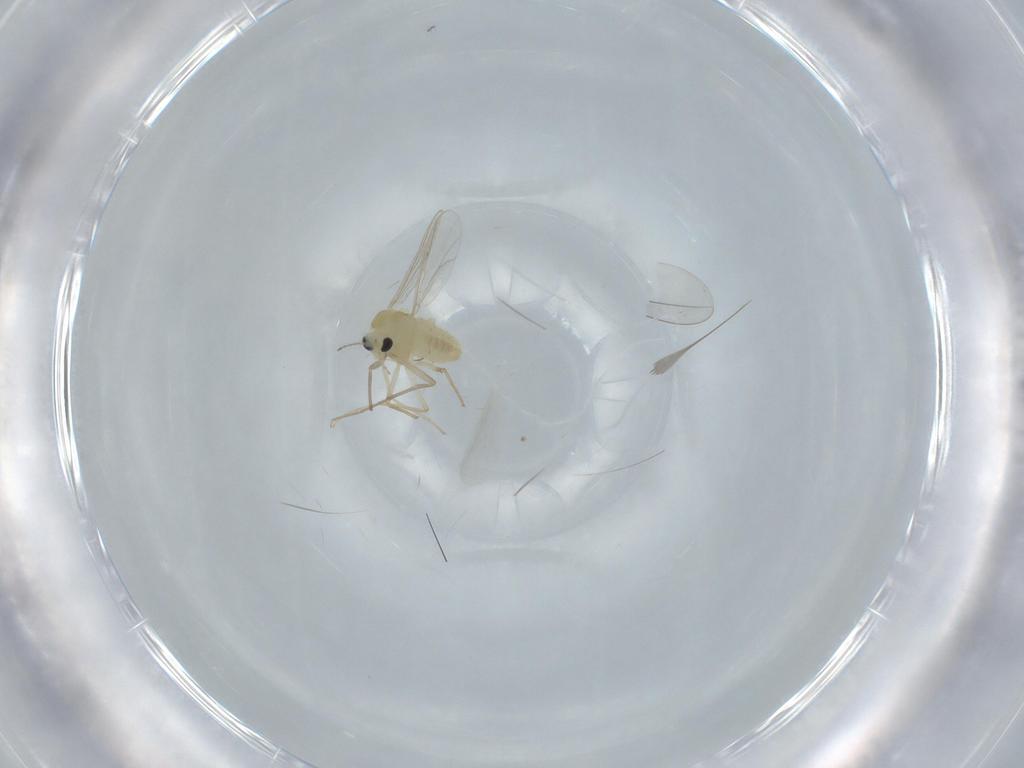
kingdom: Animalia
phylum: Arthropoda
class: Insecta
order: Diptera
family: Chironomidae
